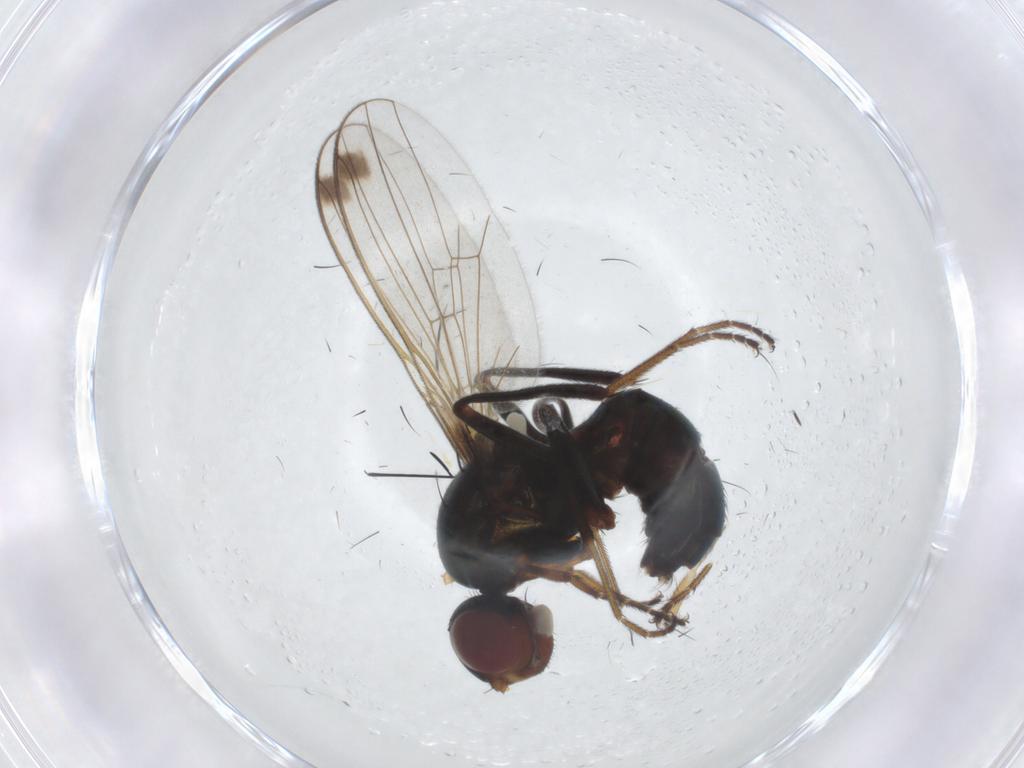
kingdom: Animalia
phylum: Arthropoda
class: Insecta
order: Diptera
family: Sepsidae
